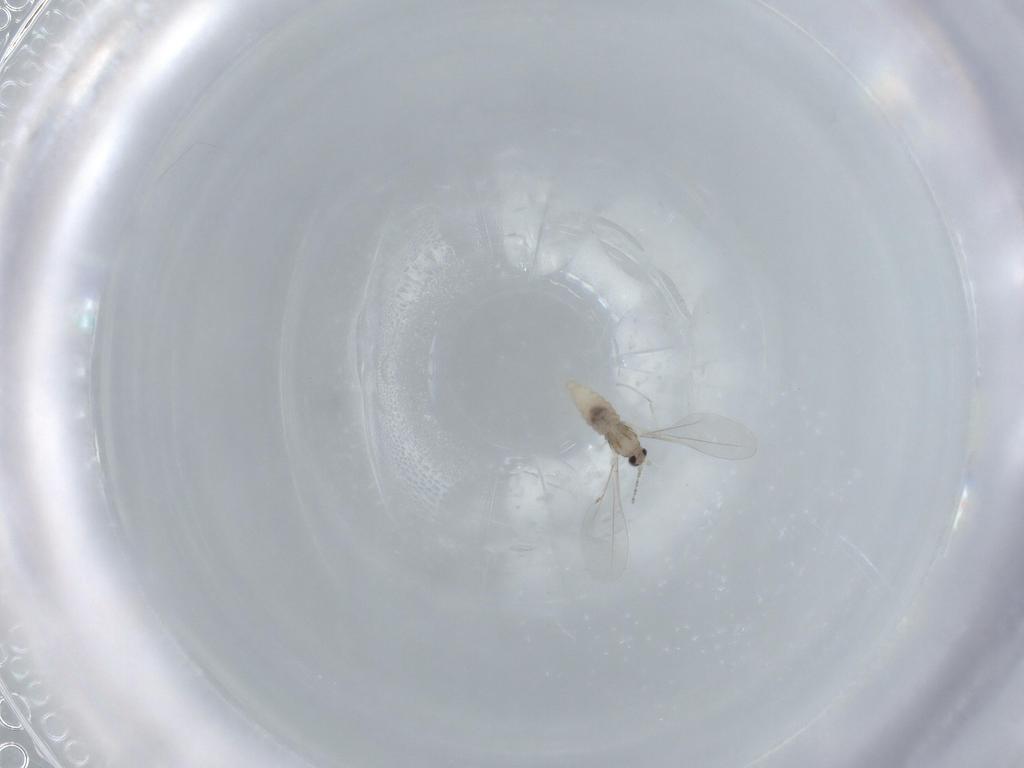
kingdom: Animalia
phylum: Arthropoda
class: Insecta
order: Diptera
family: Cecidomyiidae
